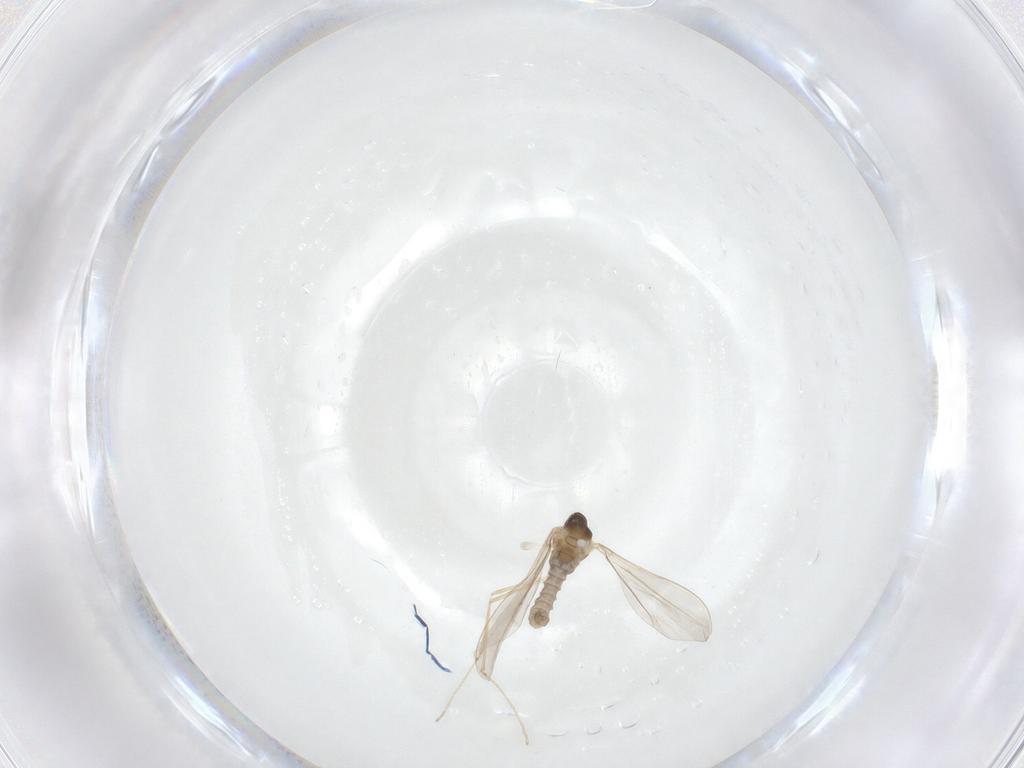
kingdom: Animalia
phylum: Arthropoda
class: Insecta
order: Diptera
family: Cecidomyiidae
